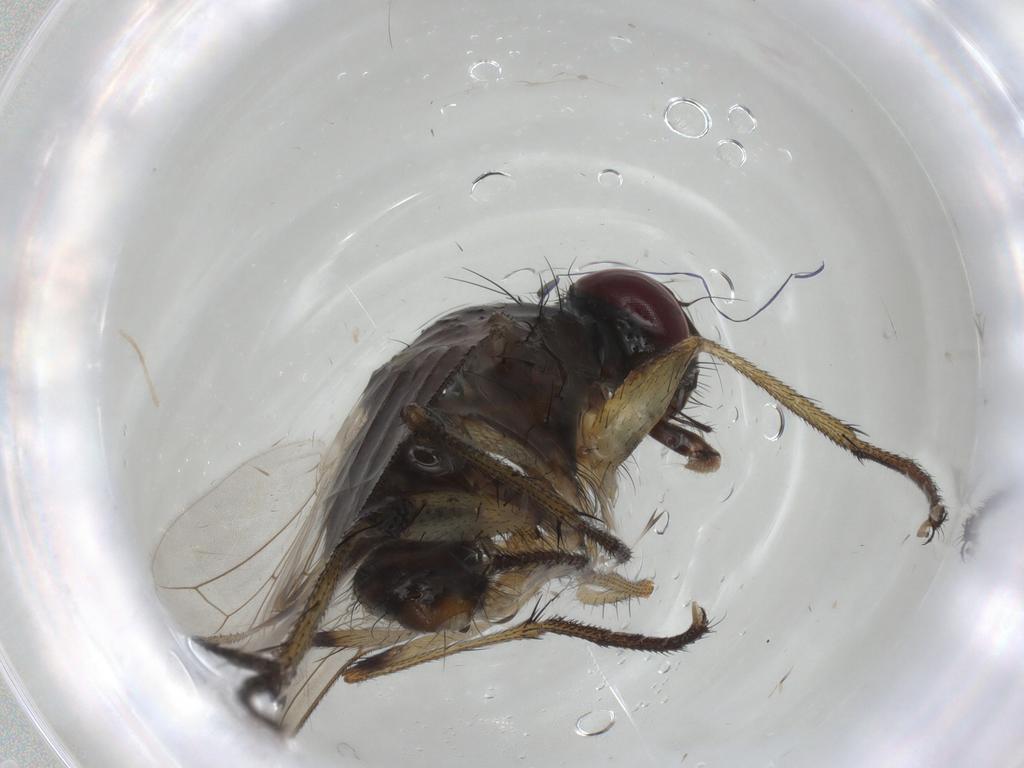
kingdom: Animalia
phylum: Arthropoda
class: Insecta
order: Diptera
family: Muscidae
